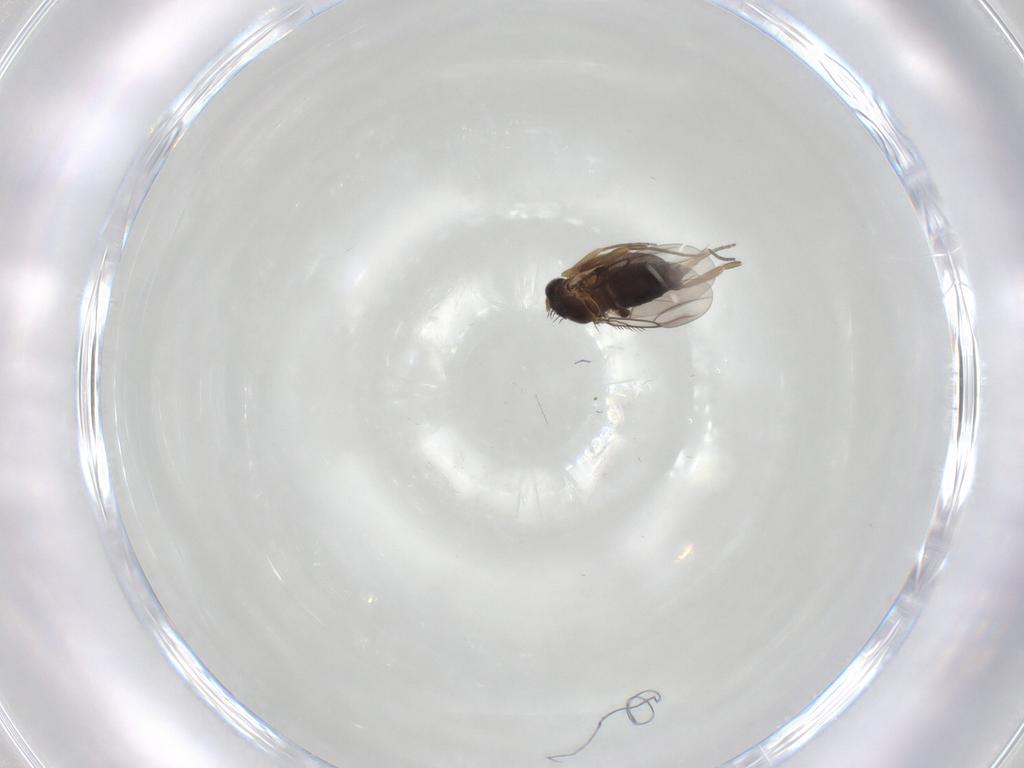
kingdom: Animalia
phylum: Arthropoda
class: Insecta
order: Diptera
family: Phoridae
